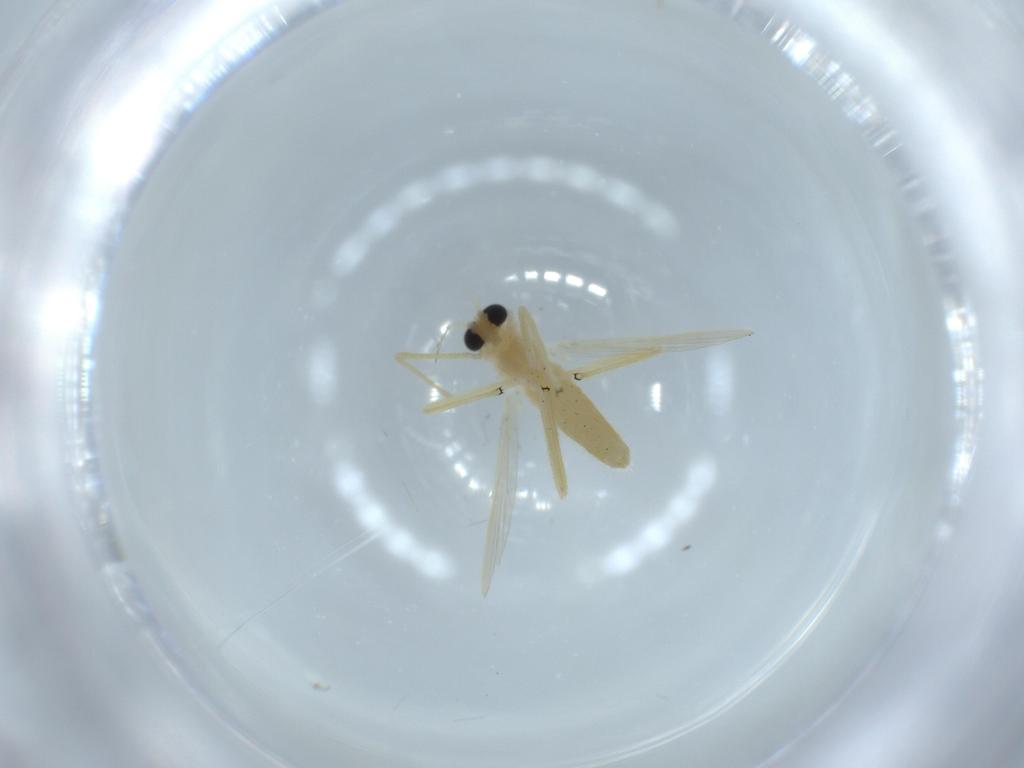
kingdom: Animalia
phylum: Arthropoda
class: Insecta
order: Diptera
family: Chironomidae
